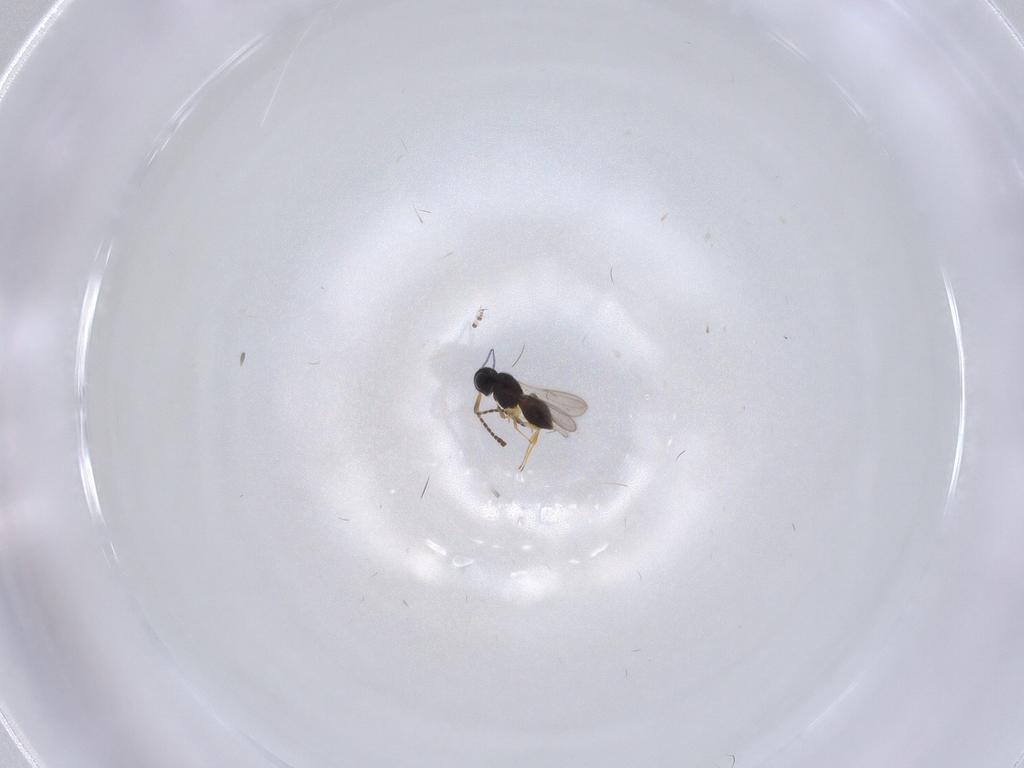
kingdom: Animalia
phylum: Arthropoda
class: Insecta
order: Hymenoptera
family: Scelionidae
